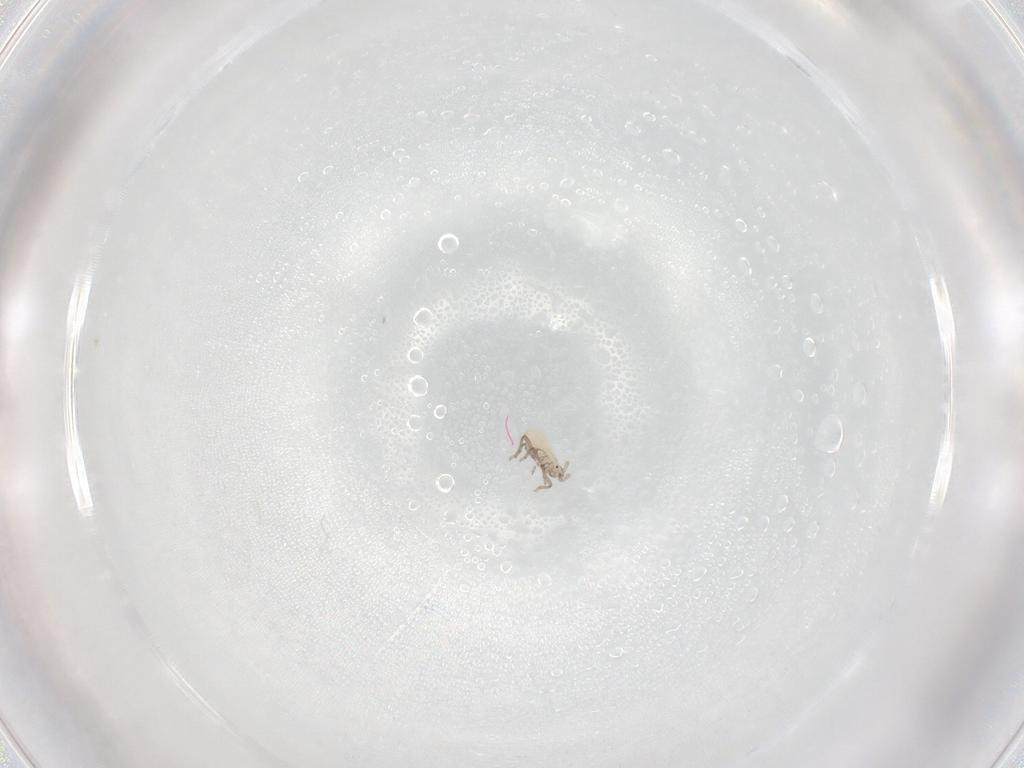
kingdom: Animalia
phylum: Arthropoda
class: Insecta
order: Hemiptera
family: Aphididae
